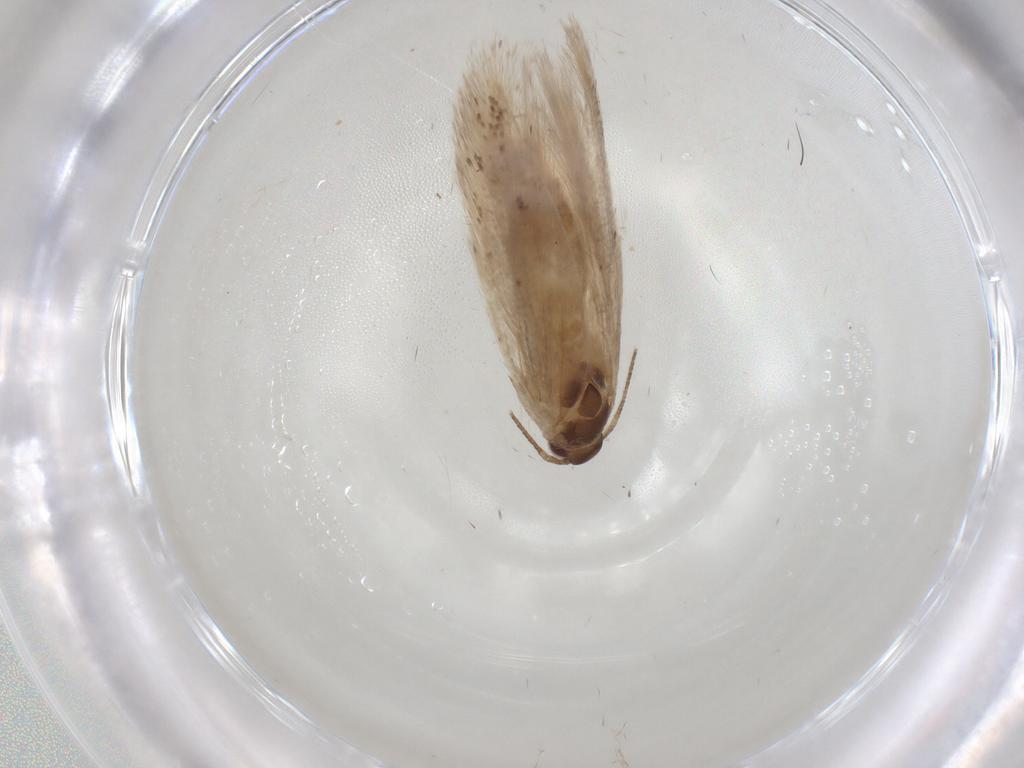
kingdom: Animalia
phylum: Arthropoda
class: Insecta
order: Lepidoptera
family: Crambidae
